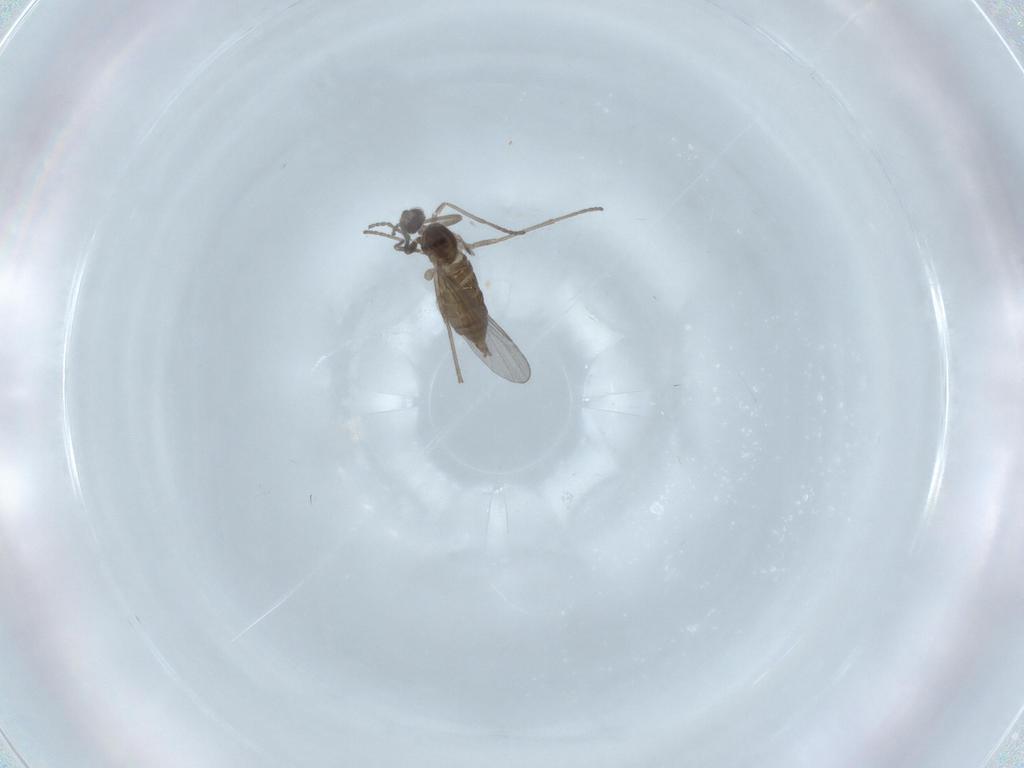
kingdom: Animalia
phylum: Arthropoda
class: Insecta
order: Diptera
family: Cecidomyiidae
